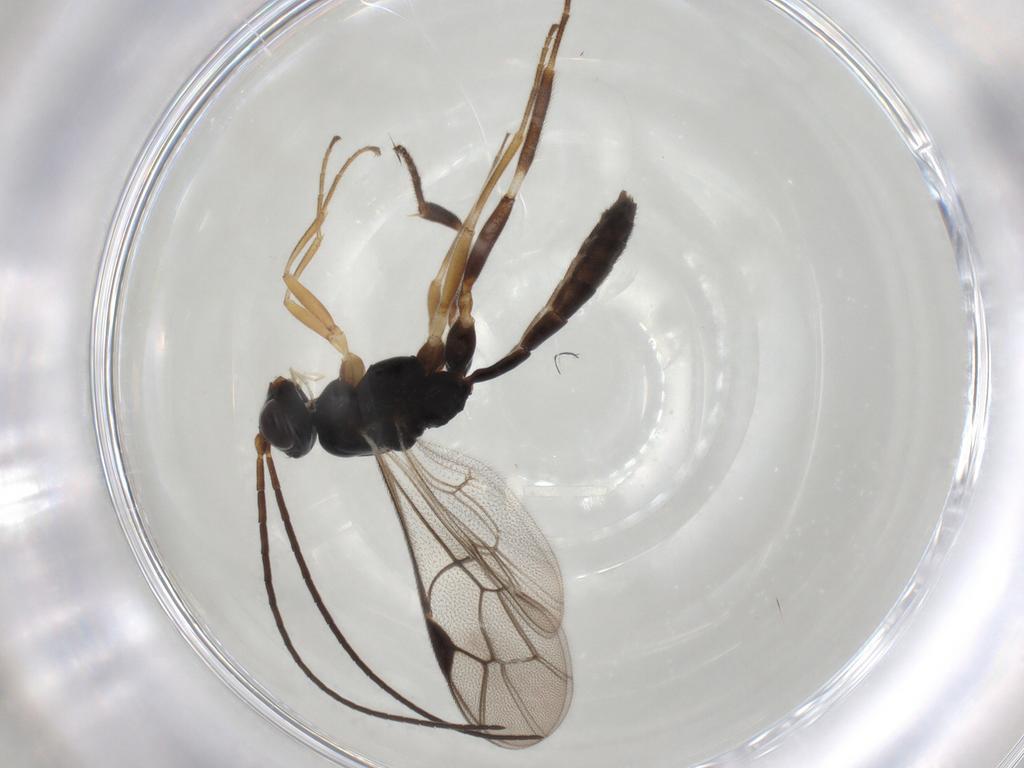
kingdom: Animalia
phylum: Arthropoda
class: Insecta
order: Hymenoptera
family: Ichneumonidae
